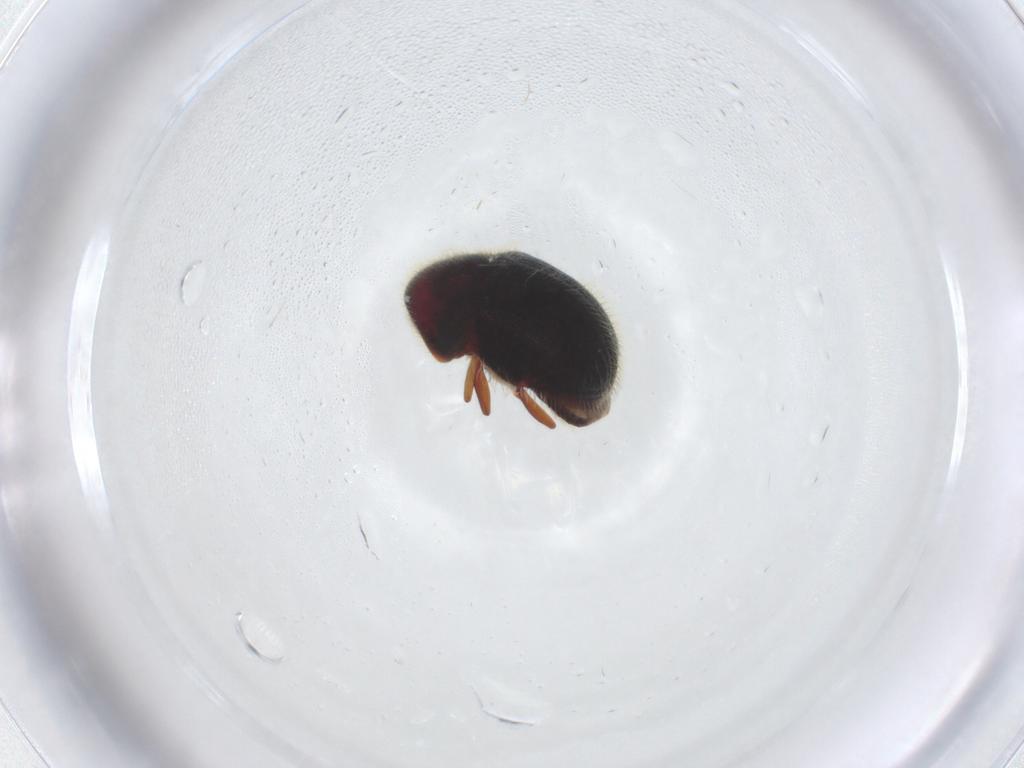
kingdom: Animalia
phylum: Arthropoda
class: Insecta
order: Coleoptera
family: Ptinidae
